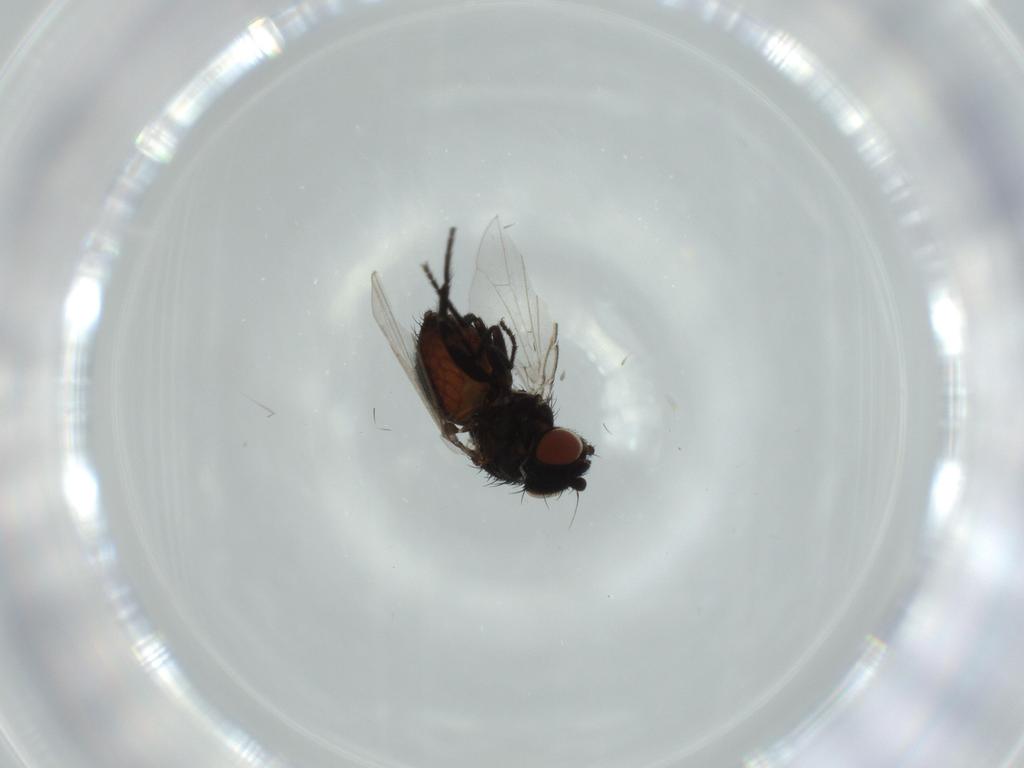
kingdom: Animalia
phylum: Arthropoda
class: Insecta
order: Diptera
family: Milichiidae
